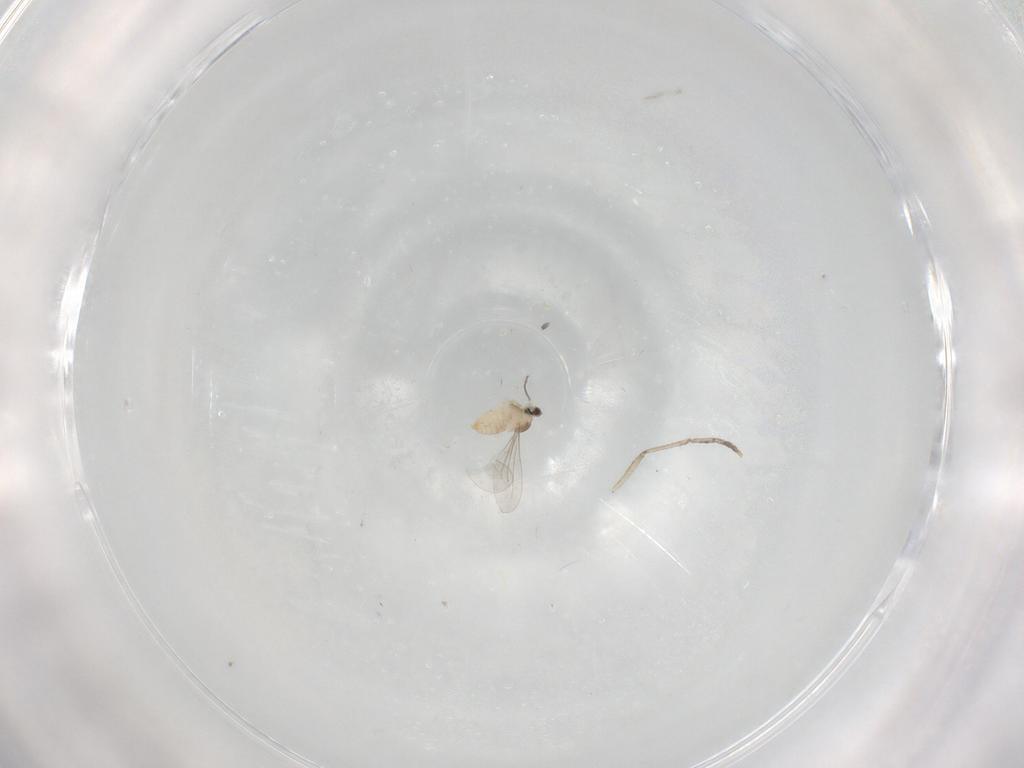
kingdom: Animalia
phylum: Arthropoda
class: Insecta
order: Diptera
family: Cecidomyiidae
